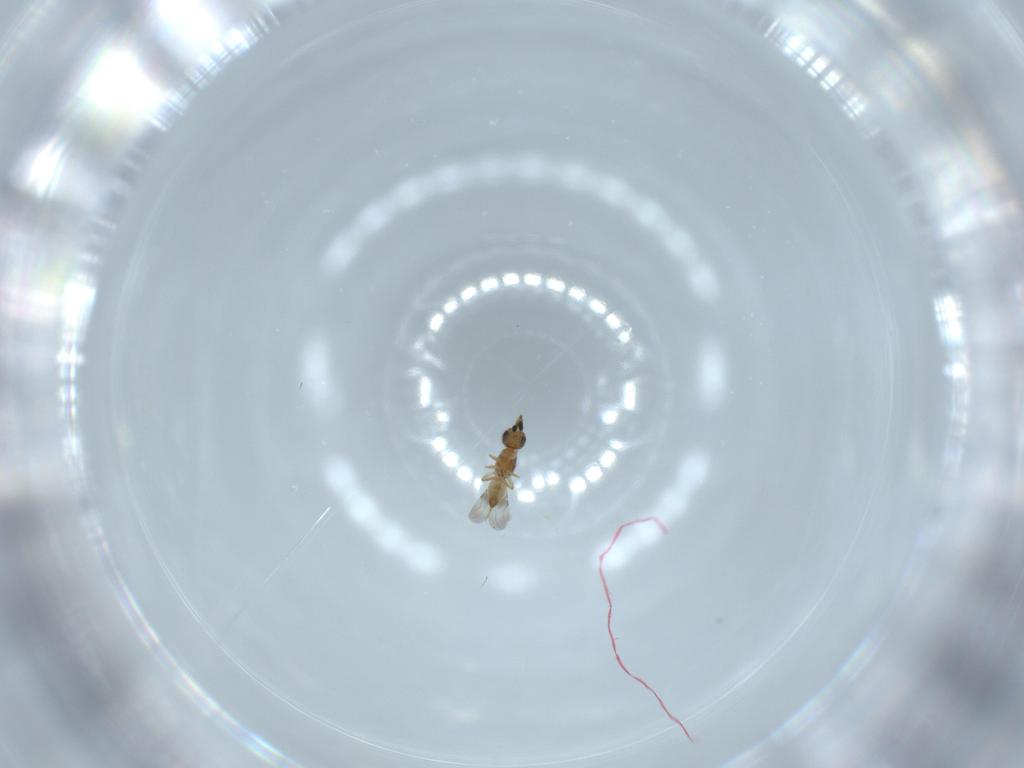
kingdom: Animalia
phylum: Arthropoda
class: Insecta
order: Hymenoptera
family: Ceraphronidae
